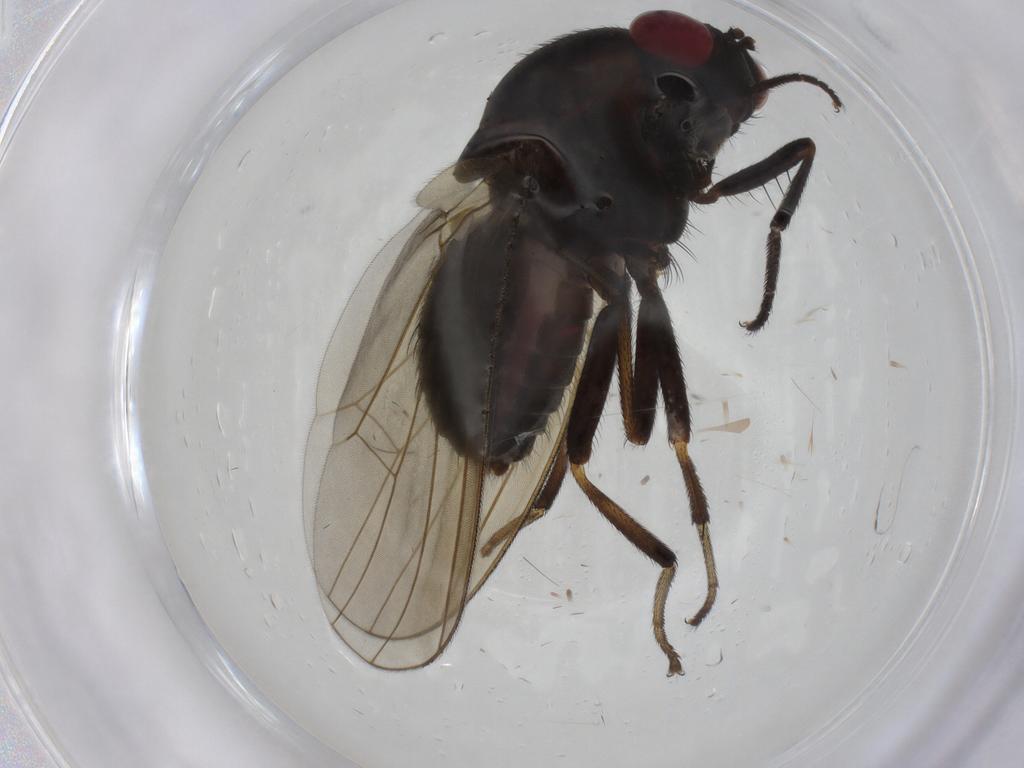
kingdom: Animalia
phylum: Arthropoda
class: Insecta
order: Diptera
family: Tachinidae
